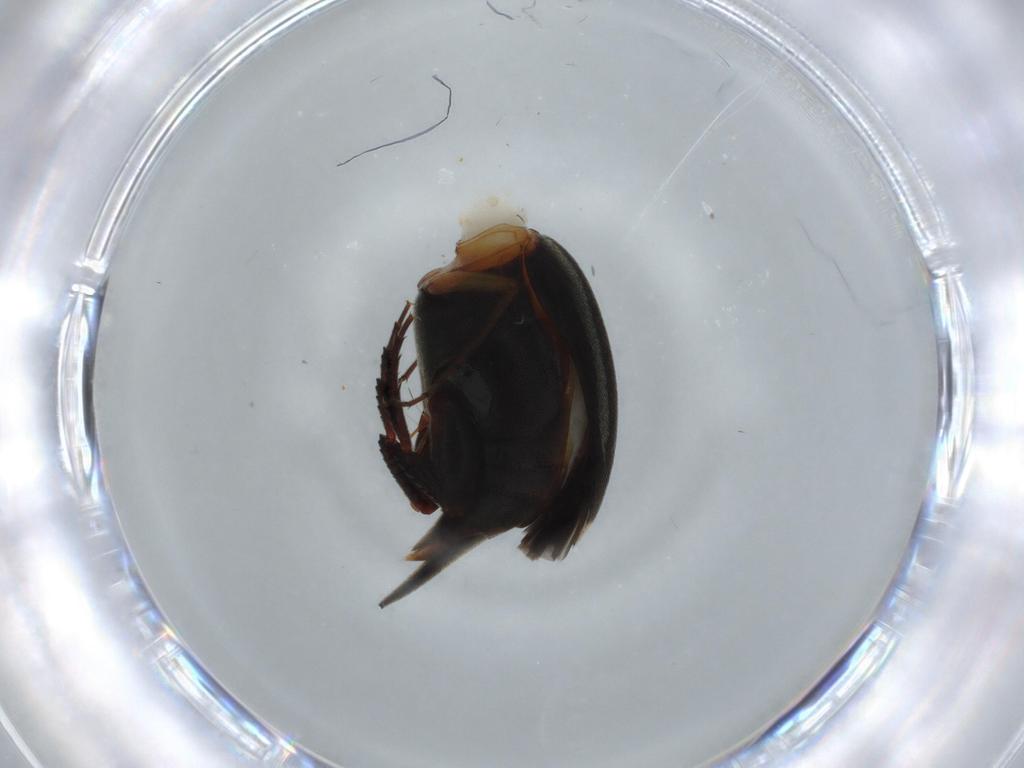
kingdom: Animalia
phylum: Arthropoda
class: Insecta
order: Coleoptera
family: Mordellidae
